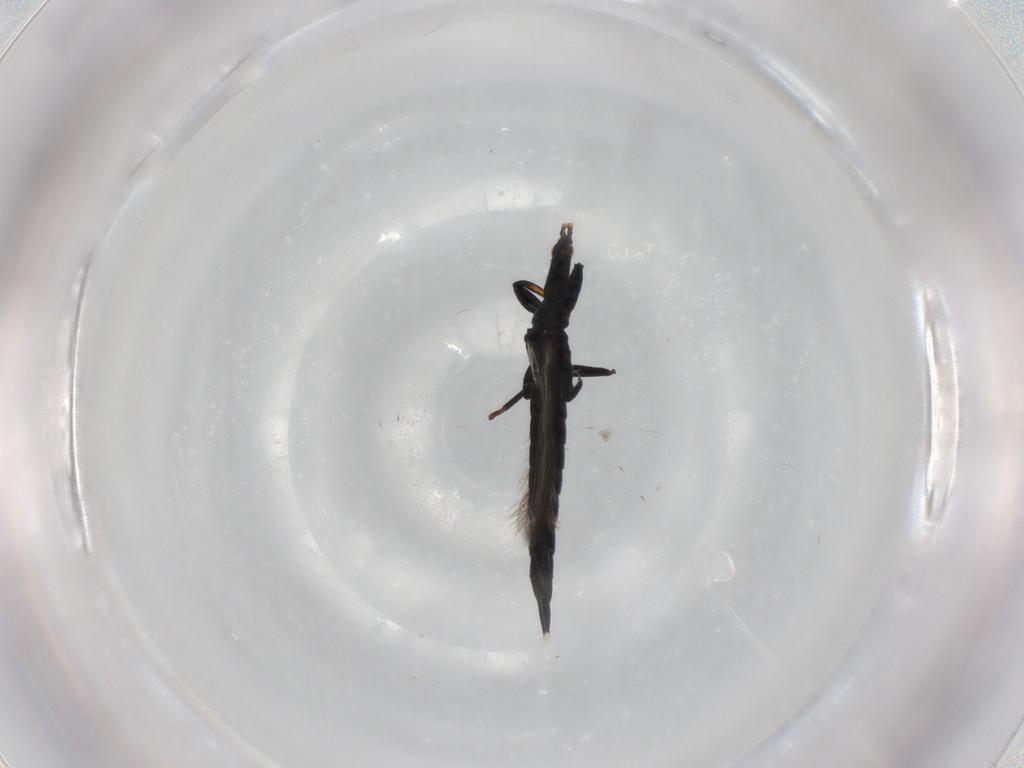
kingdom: Animalia
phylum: Arthropoda
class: Insecta
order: Thysanoptera
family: Phlaeothripidae
